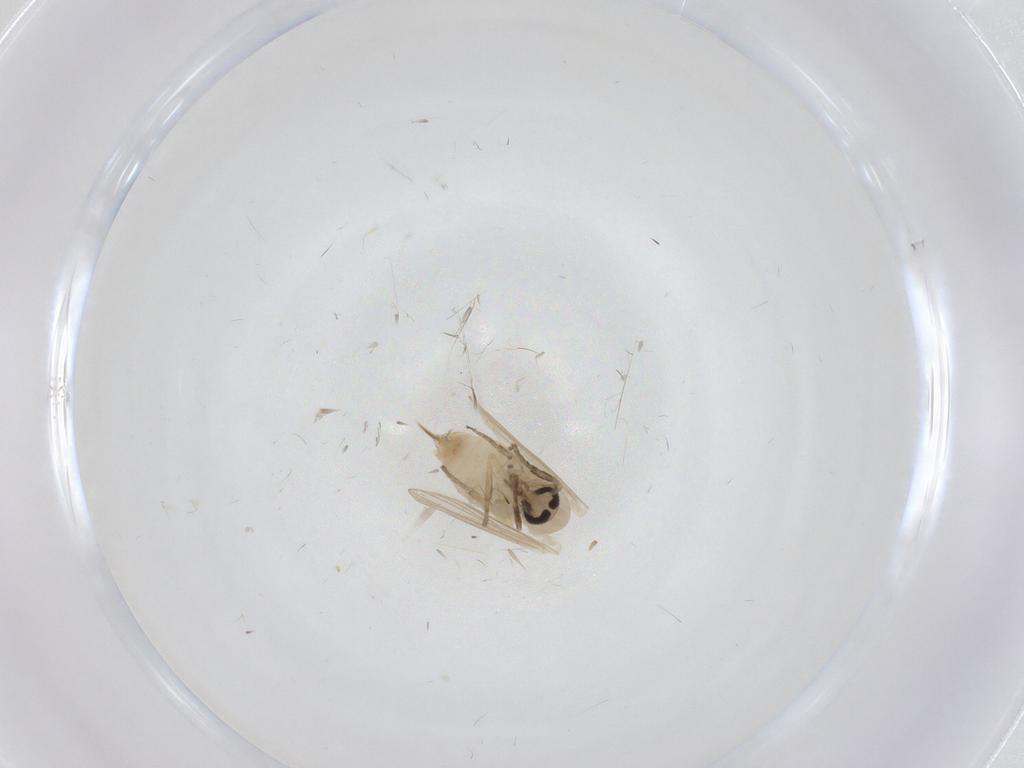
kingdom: Animalia
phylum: Arthropoda
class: Insecta
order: Diptera
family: Psychodidae
